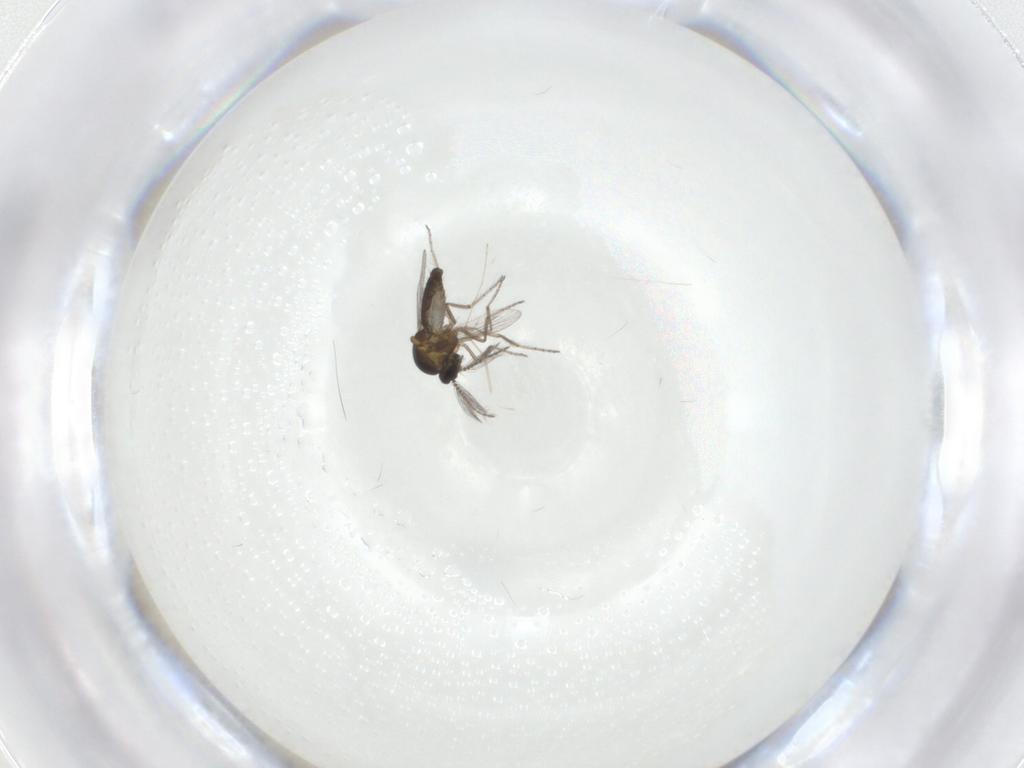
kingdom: Animalia
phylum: Arthropoda
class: Insecta
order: Diptera
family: Ceratopogonidae
